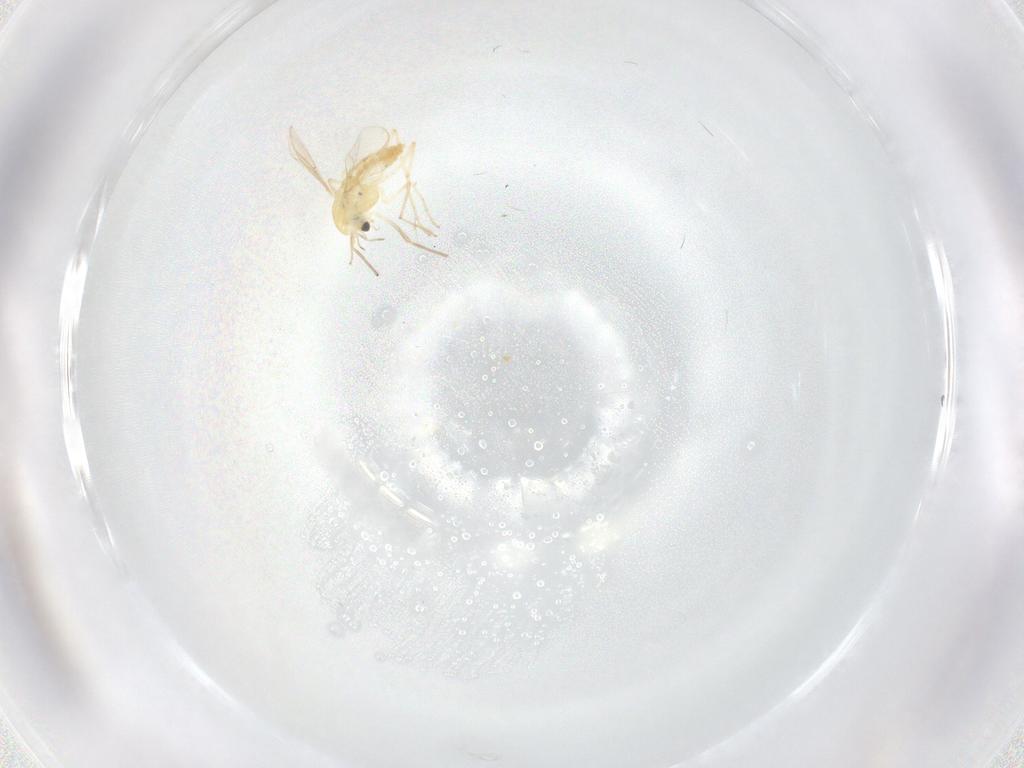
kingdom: Animalia
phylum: Arthropoda
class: Insecta
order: Diptera
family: Chironomidae
